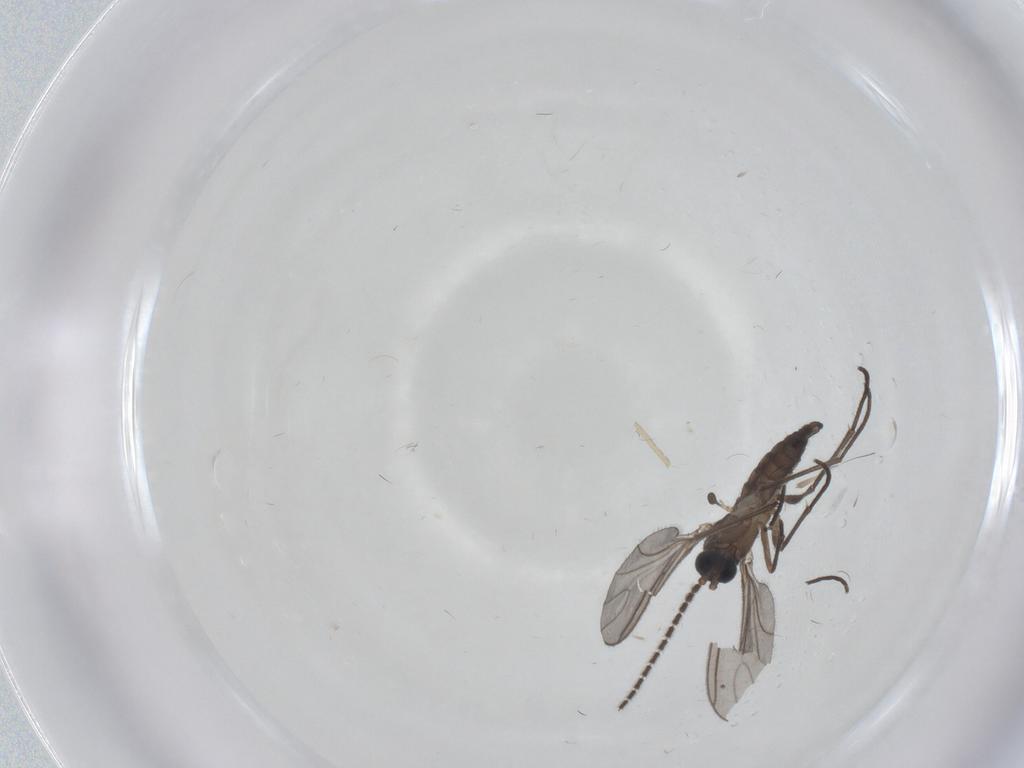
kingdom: Animalia
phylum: Arthropoda
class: Insecta
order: Diptera
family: Sciaridae
